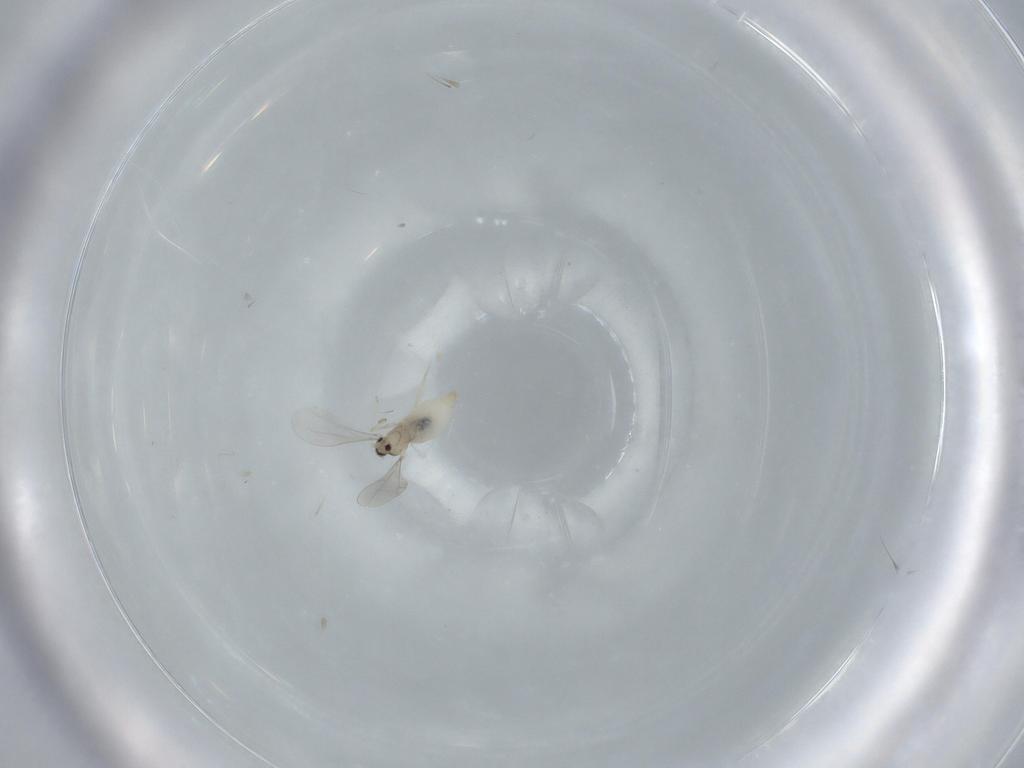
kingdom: Animalia
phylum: Arthropoda
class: Insecta
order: Diptera
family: Cecidomyiidae
